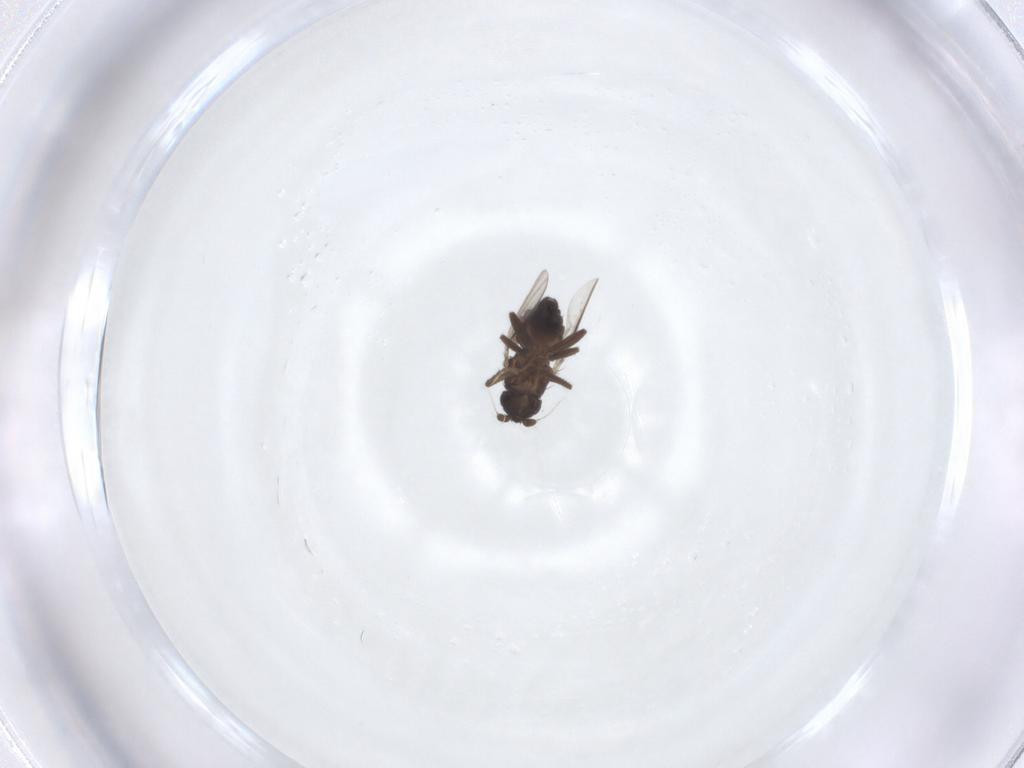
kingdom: Animalia
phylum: Arthropoda
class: Insecta
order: Diptera
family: Sphaeroceridae
